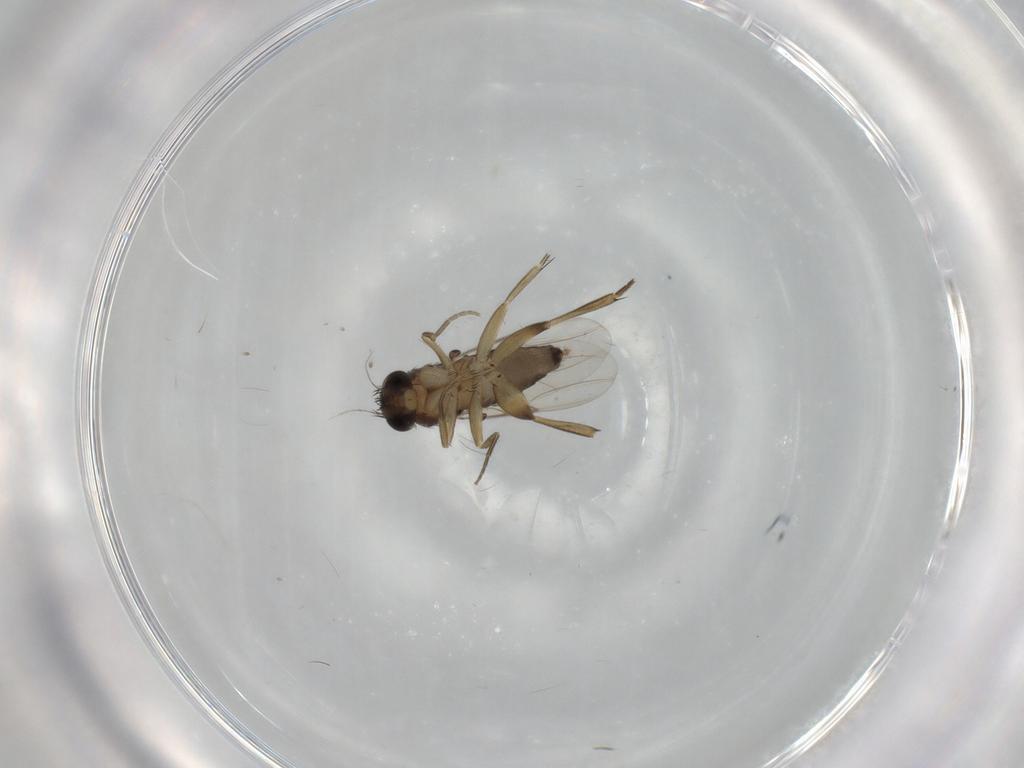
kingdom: Animalia
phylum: Arthropoda
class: Insecta
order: Diptera
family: Phoridae
